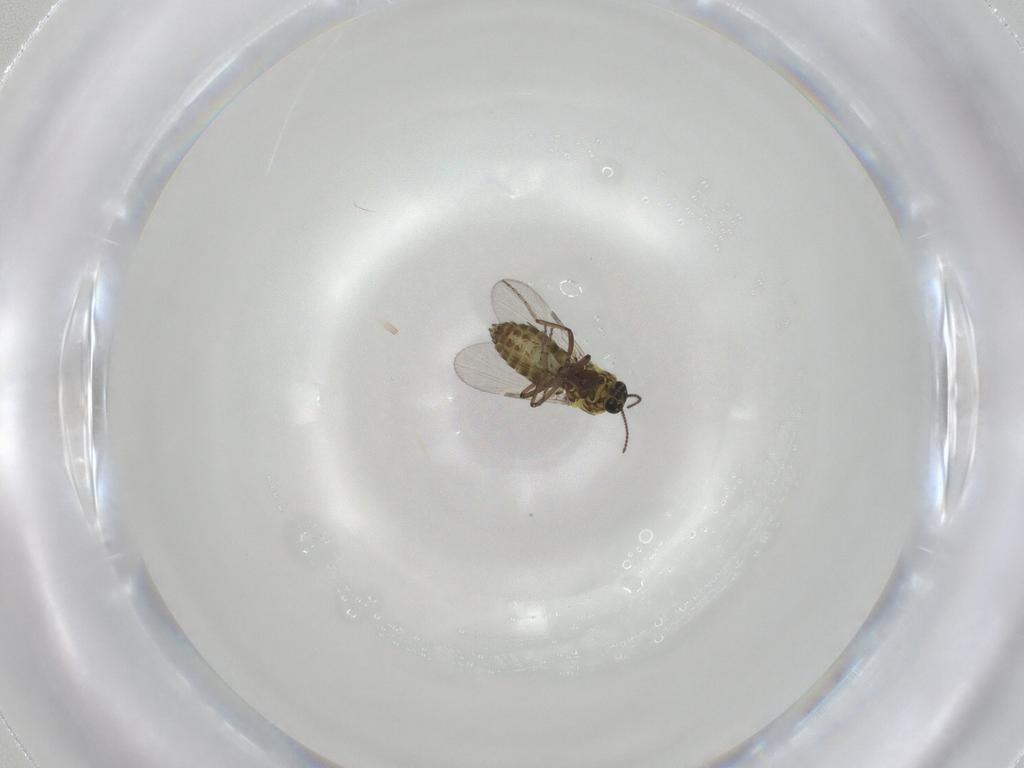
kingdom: Animalia
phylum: Arthropoda
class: Insecta
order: Diptera
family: Ceratopogonidae
